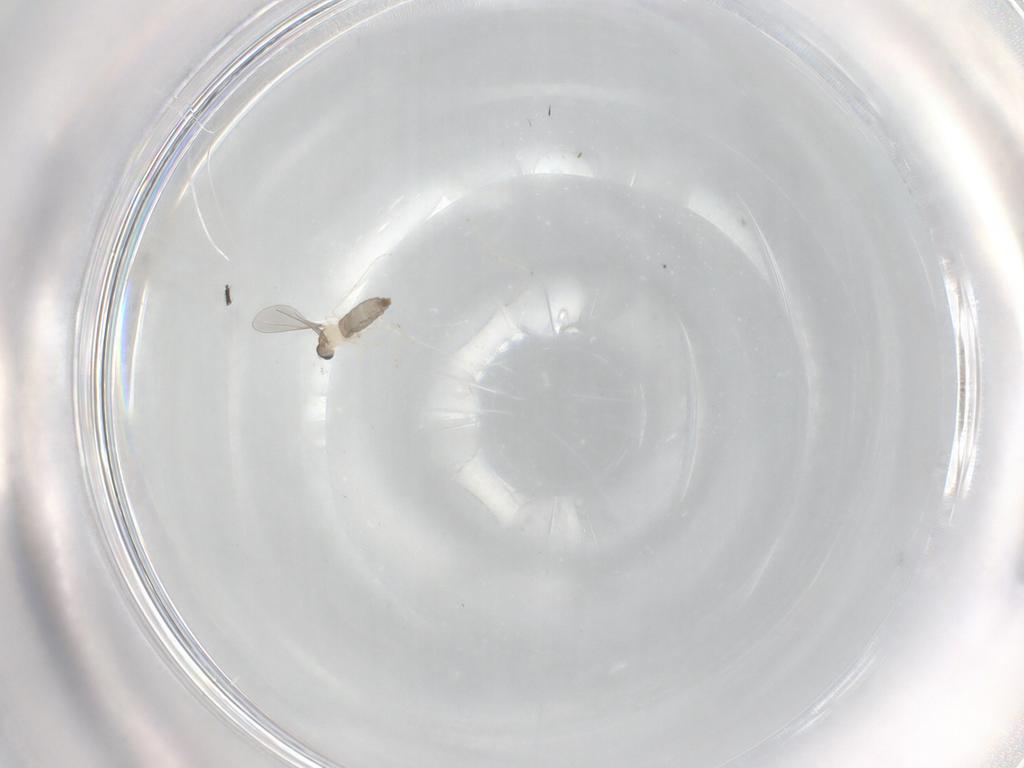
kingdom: Animalia
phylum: Arthropoda
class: Insecta
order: Diptera
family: Cecidomyiidae
